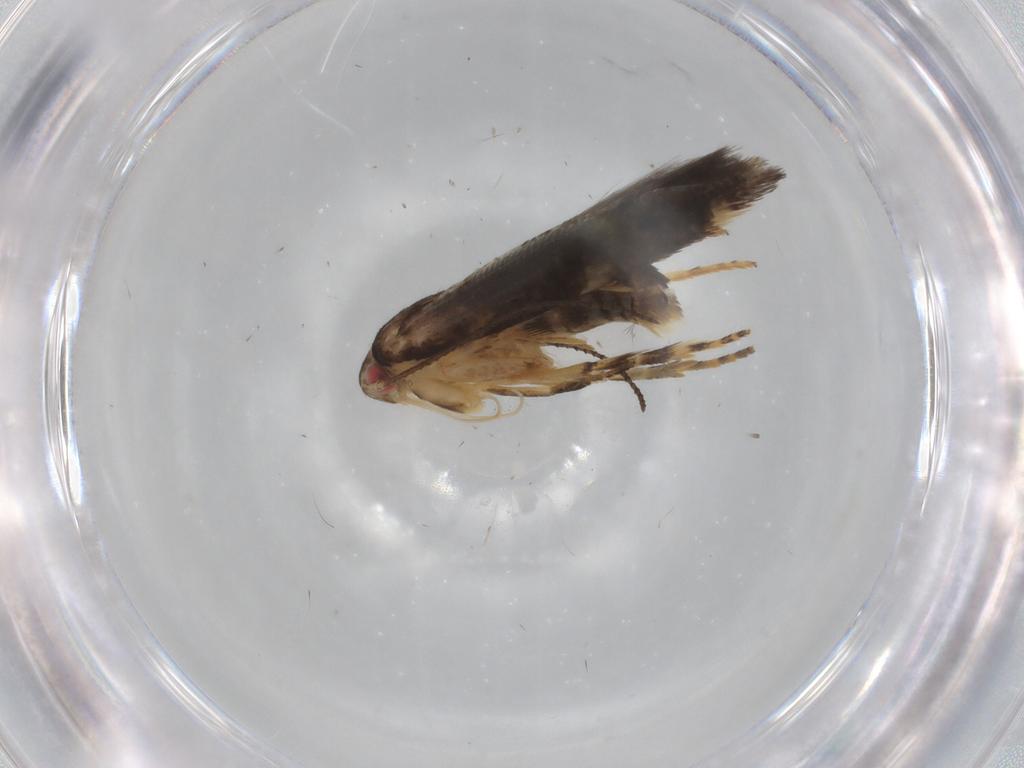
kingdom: Animalia
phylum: Arthropoda
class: Insecta
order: Lepidoptera
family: Cosmopterigidae
